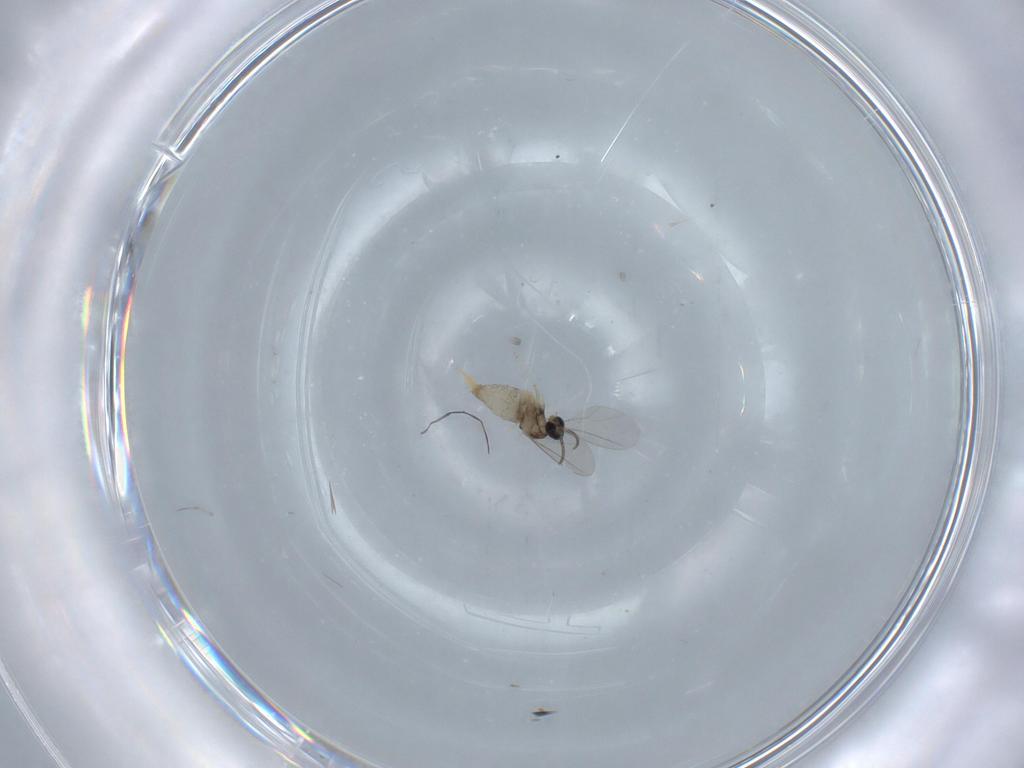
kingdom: Animalia
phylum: Arthropoda
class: Insecta
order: Diptera
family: Cecidomyiidae
